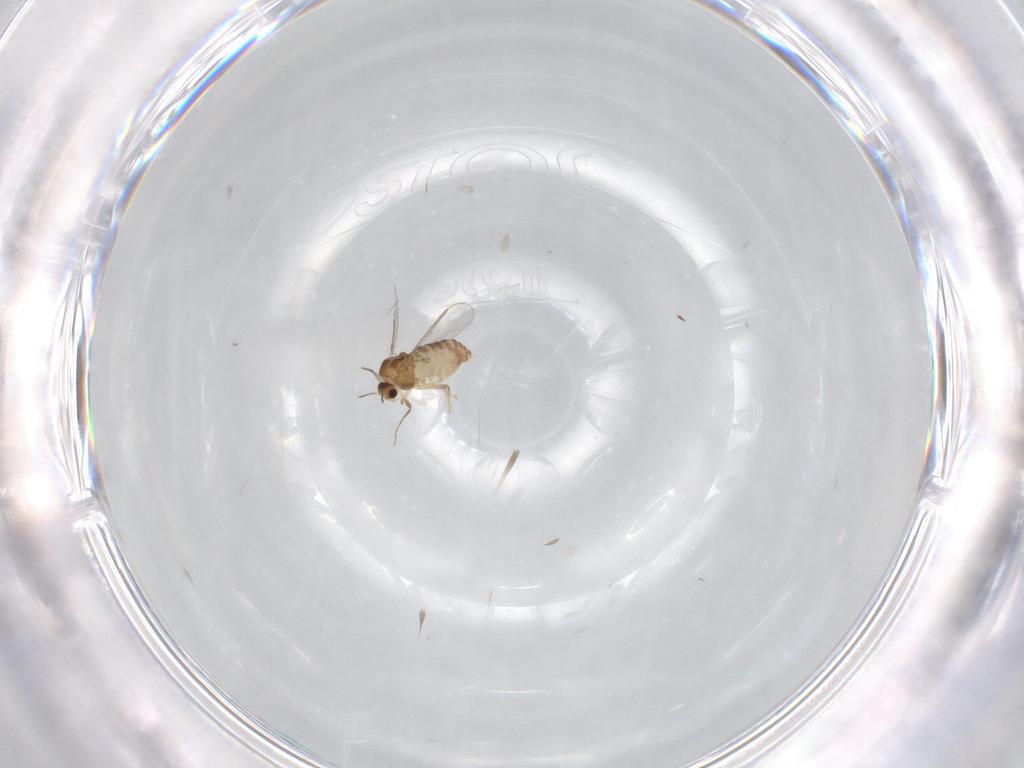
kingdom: Animalia
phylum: Arthropoda
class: Insecta
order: Diptera
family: Chironomidae
